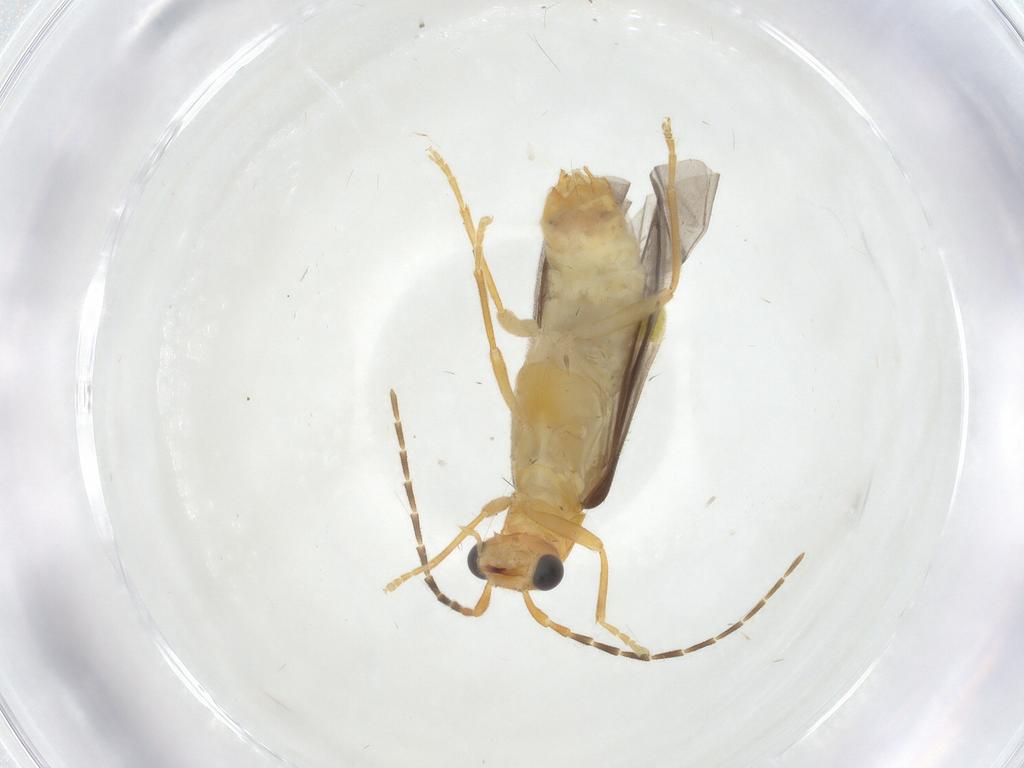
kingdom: Animalia
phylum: Arthropoda
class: Insecta
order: Coleoptera
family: Cantharidae
